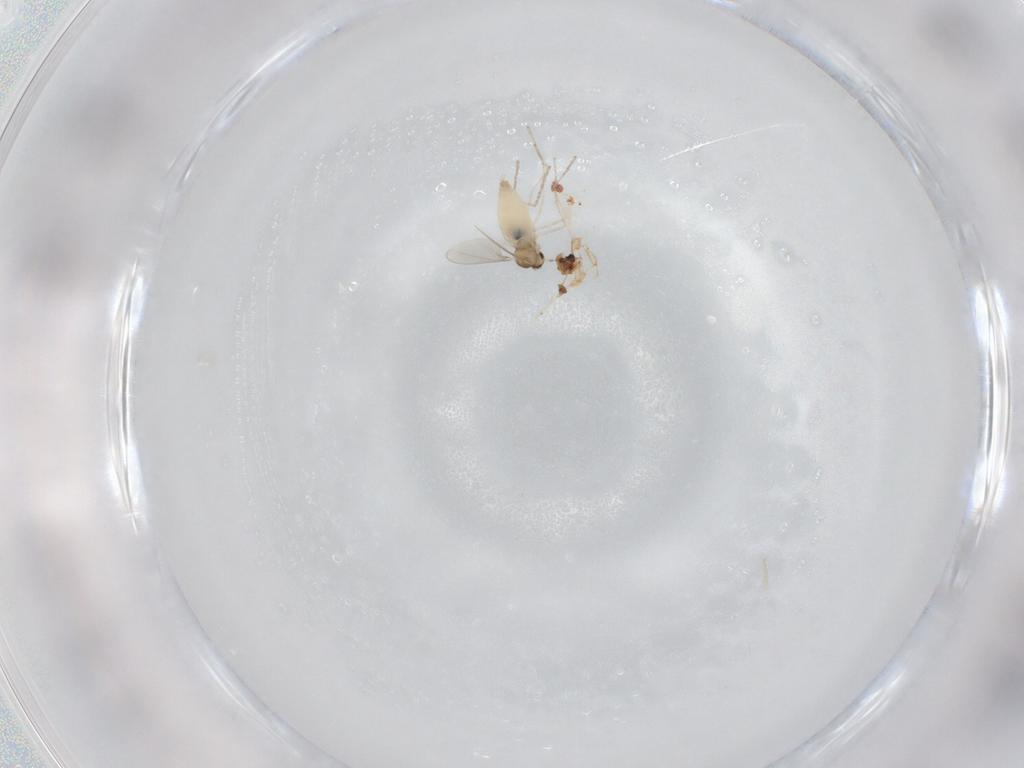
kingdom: Animalia
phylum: Arthropoda
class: Insecta
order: Diptera
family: Cecidomyiidae
